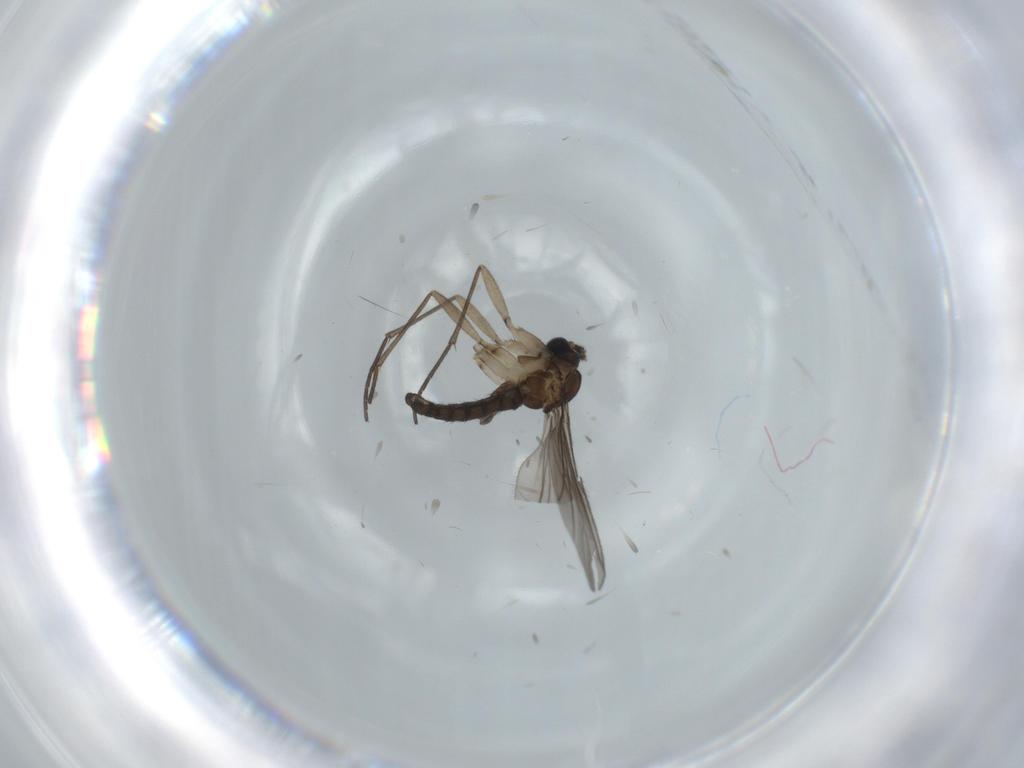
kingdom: Animalia
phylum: Arthropoda
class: Insecta
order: Diptera
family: Sciaridae
